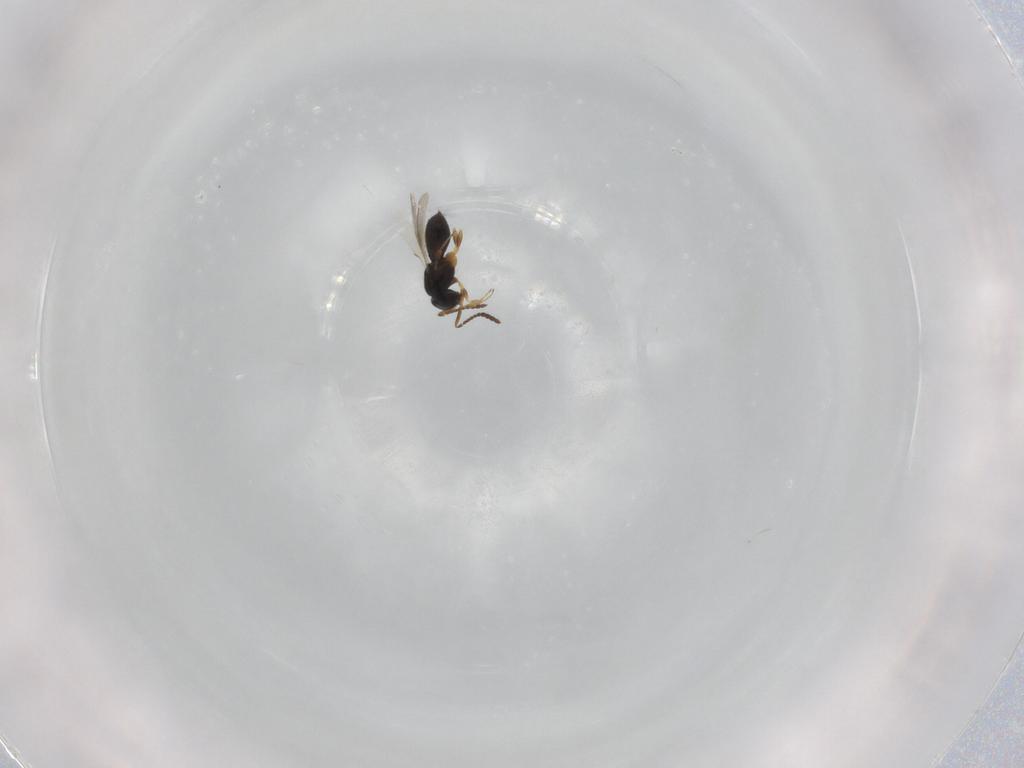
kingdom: Animalia
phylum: Arthropoda
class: Insecta
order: Hymenoptera
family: Scelionidae
